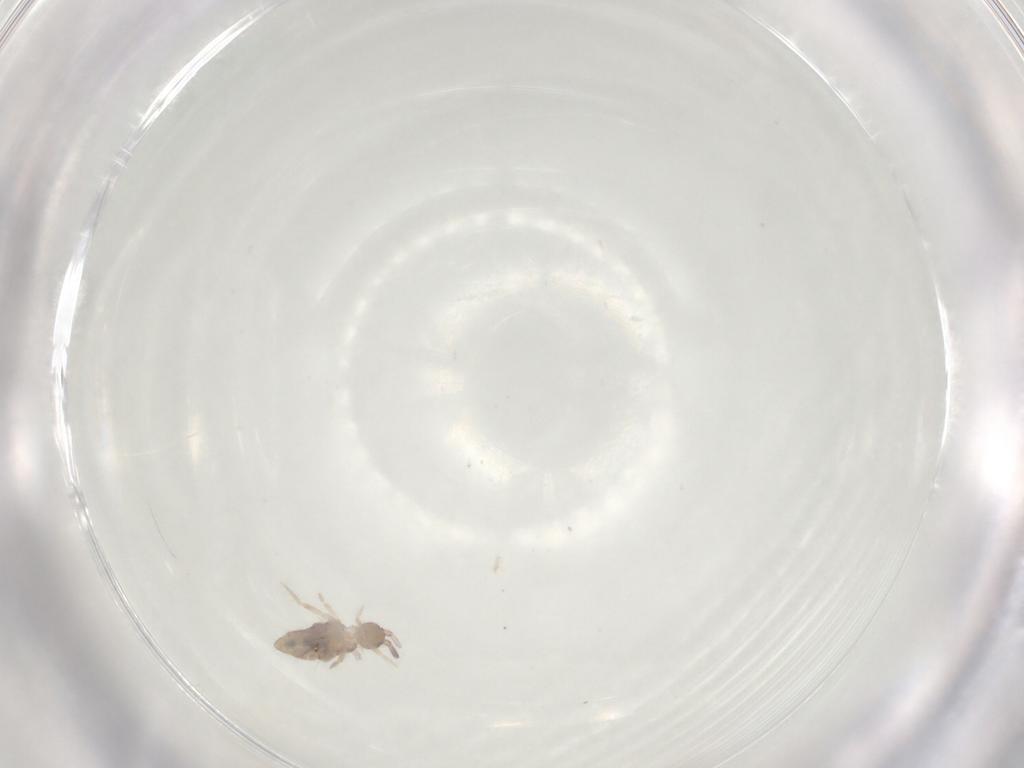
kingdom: Animalia
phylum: Arthropoda
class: Collembola
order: Entomobryomorpha
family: Entomobryidae
